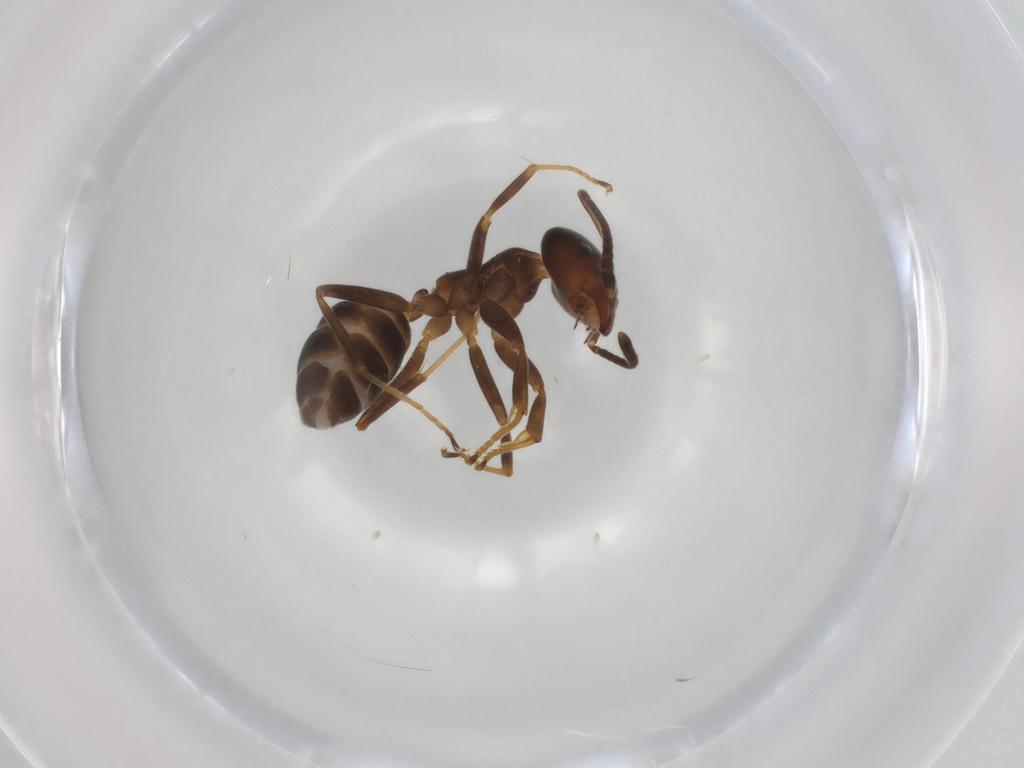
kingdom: Animalia
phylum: Arthropoda
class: Insecta
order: Hymenoptera
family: Formicidae
